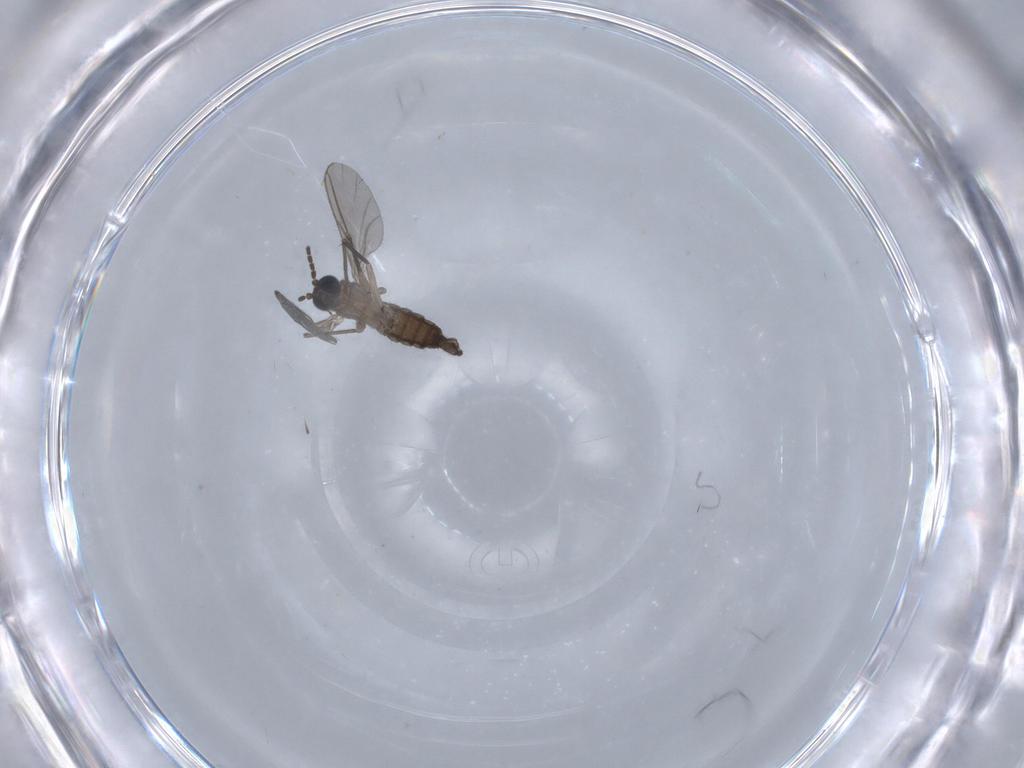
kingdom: Animalia
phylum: Arthropoda
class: Insecta
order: Diptera
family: Sciaridae
